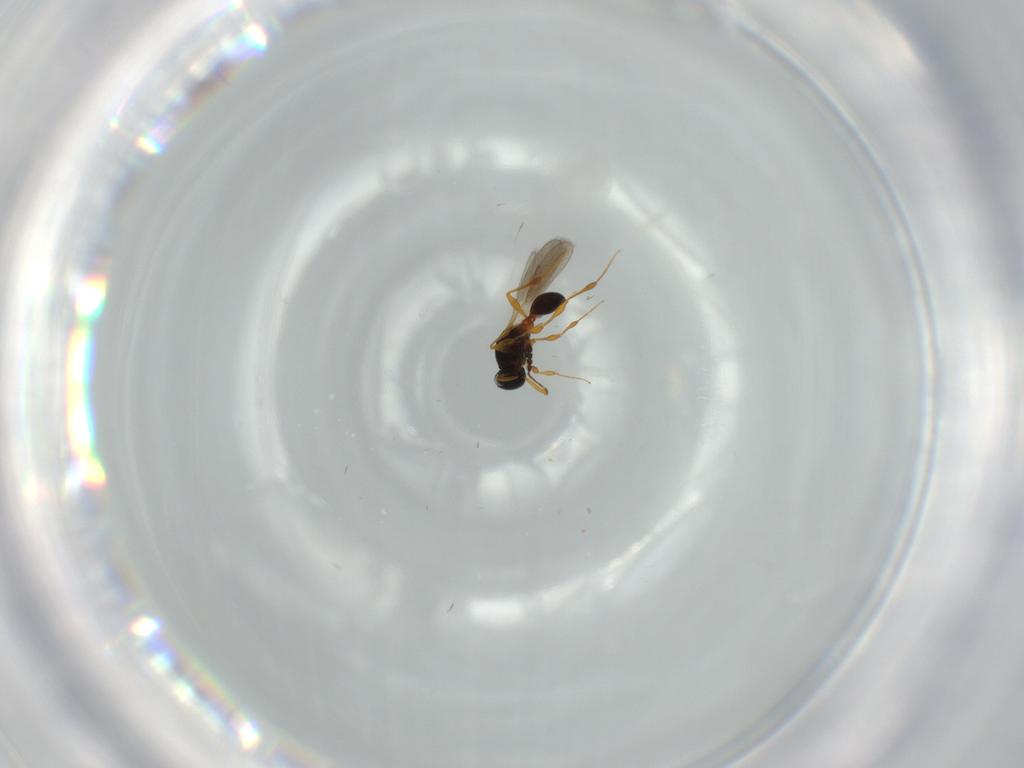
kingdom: Animalia
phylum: Arthropoda
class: Insecta
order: Hymenoptera
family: Platygastridae
